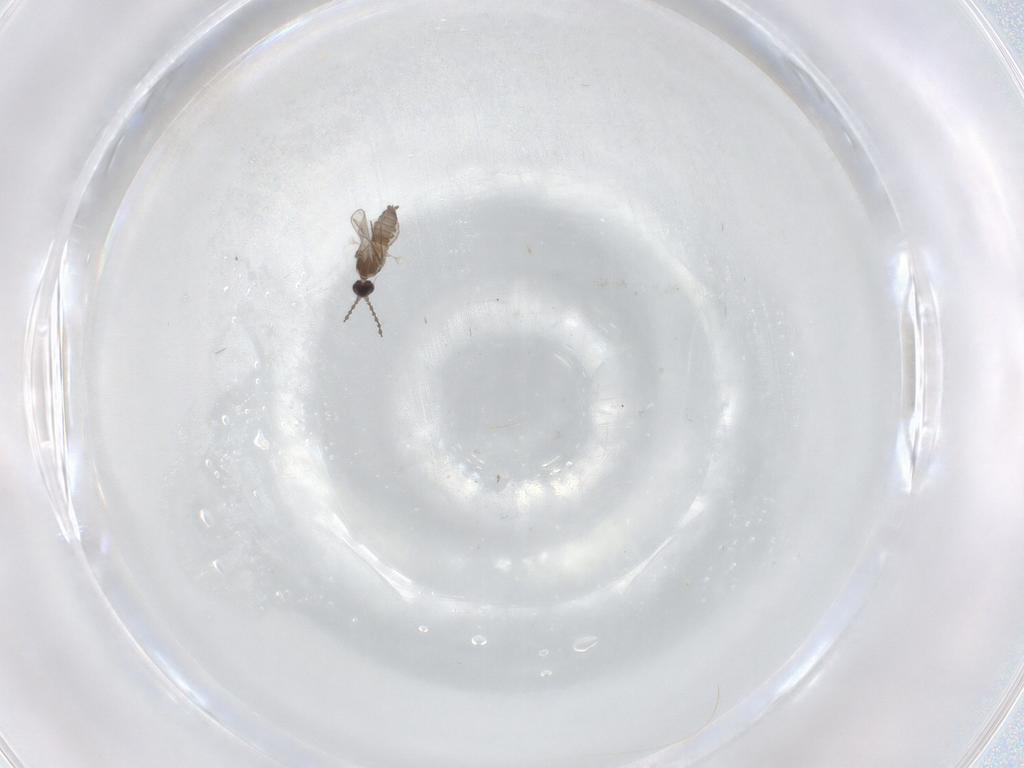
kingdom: Animalia
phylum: Arthropoda
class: Insecta
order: Diptera
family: Cecidomyiidae
